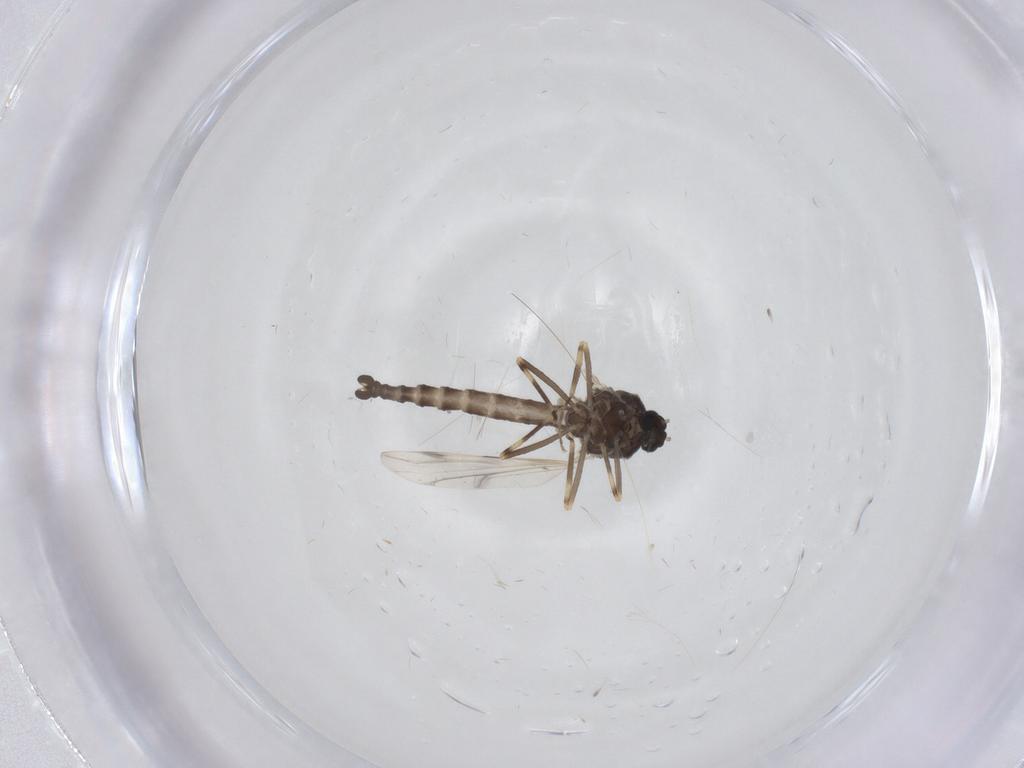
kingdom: Animalia
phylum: Arthropoda
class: Insecta
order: Diptera
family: Ceratopogonidae
